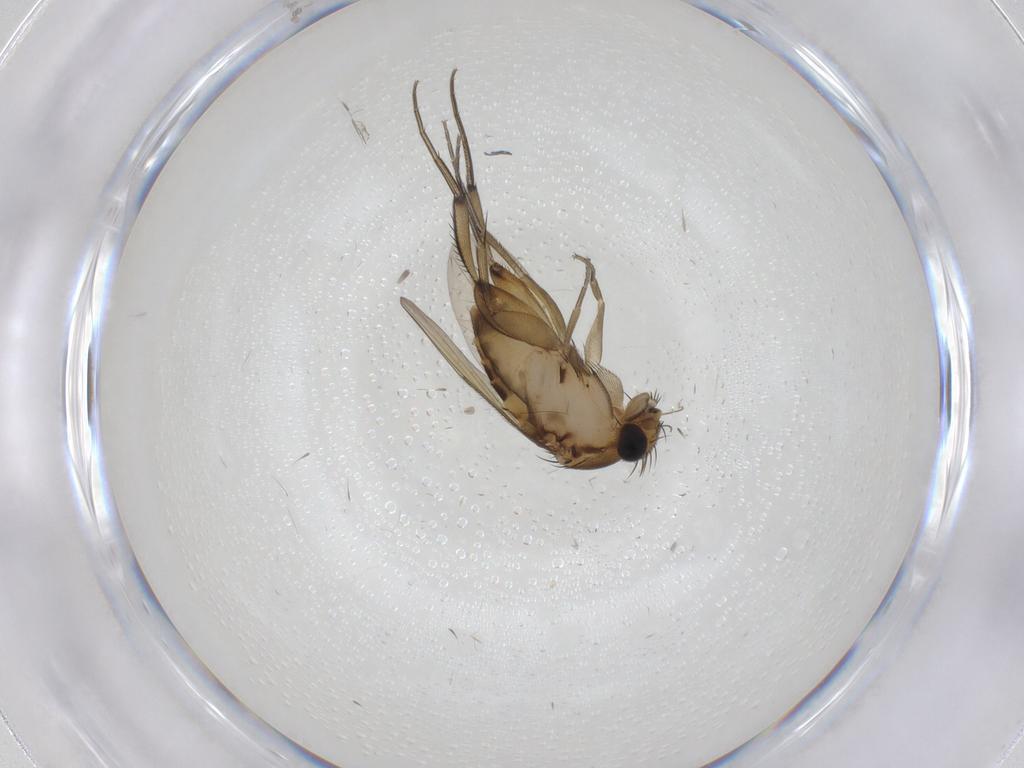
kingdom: Animalia
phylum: Arthropoda
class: Insecta
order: Diptera
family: Phoridae
